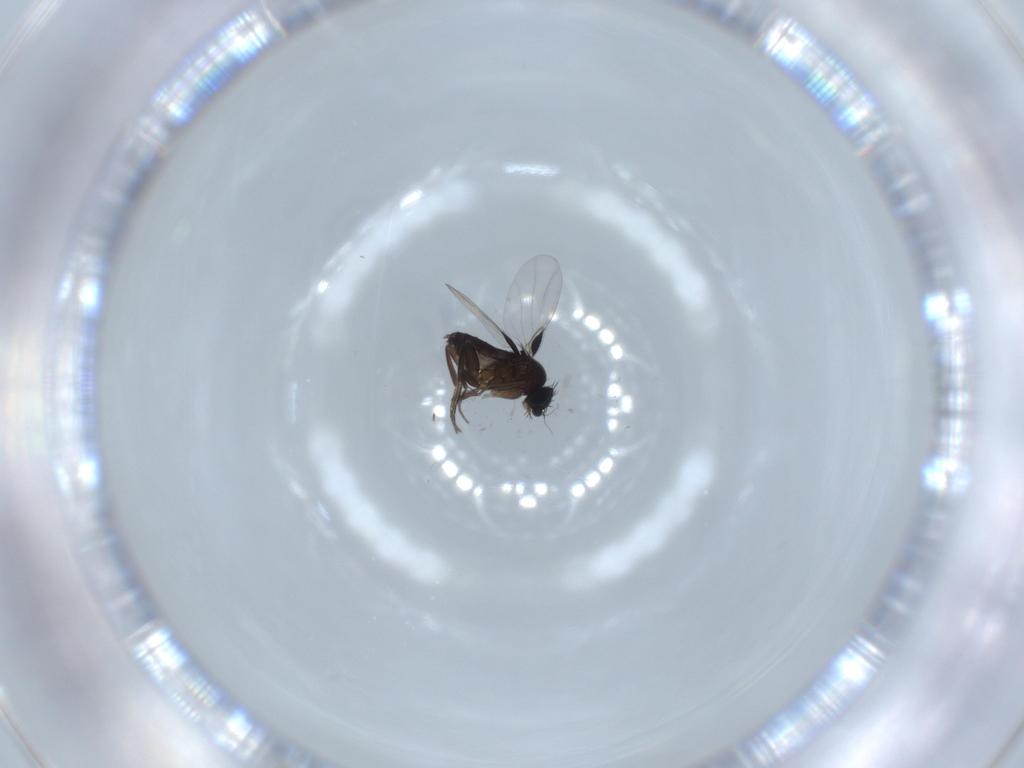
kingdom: Animalia
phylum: Arthropoda
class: Insecta
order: Diptera
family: Phoridae
